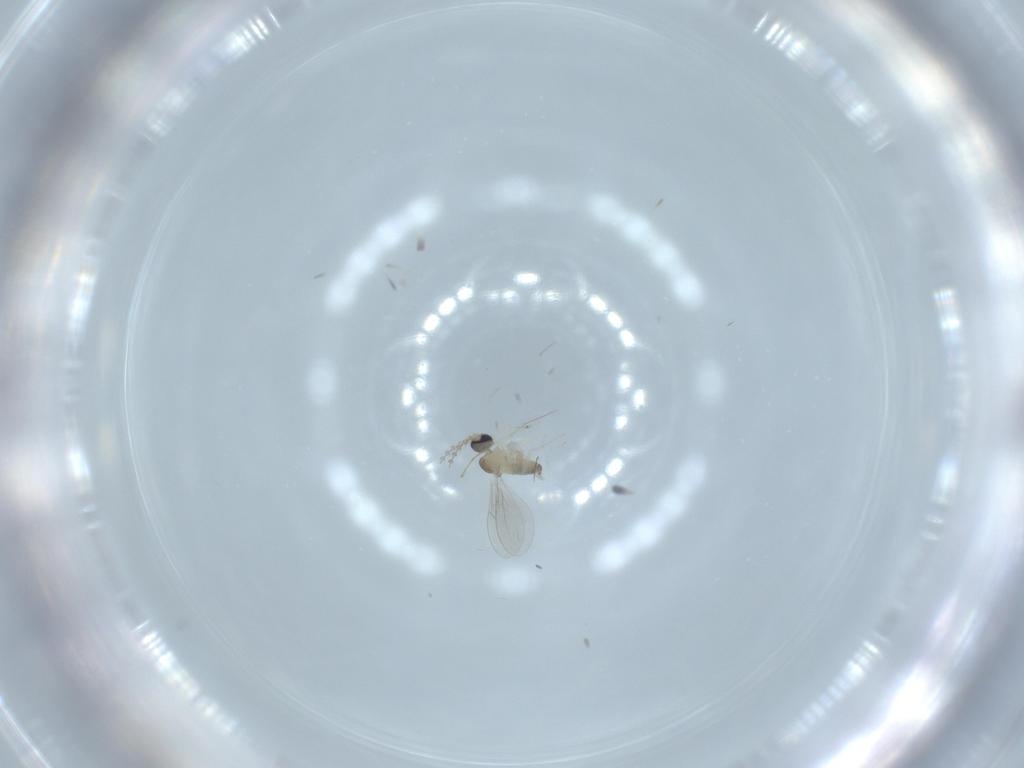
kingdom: Animalia
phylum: Arthropoda
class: Insecta
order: Diptera
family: Cecidomyiidae
